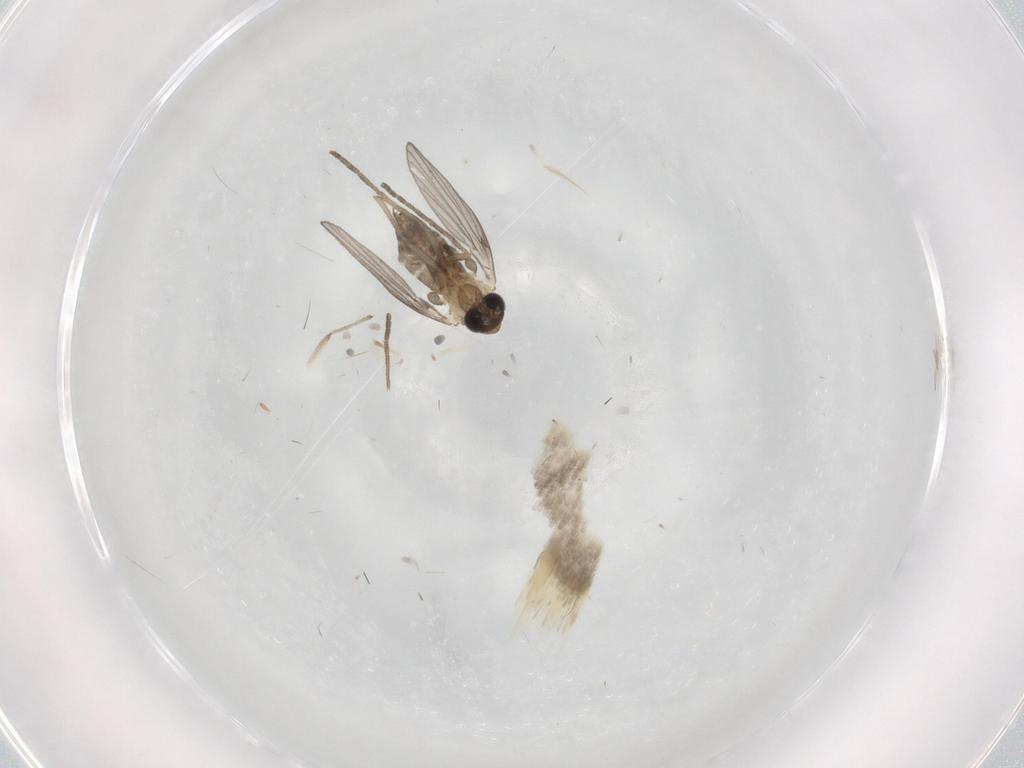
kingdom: Animalia
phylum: Arthropoda
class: Insecta
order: Diptera
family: Psychodidae
